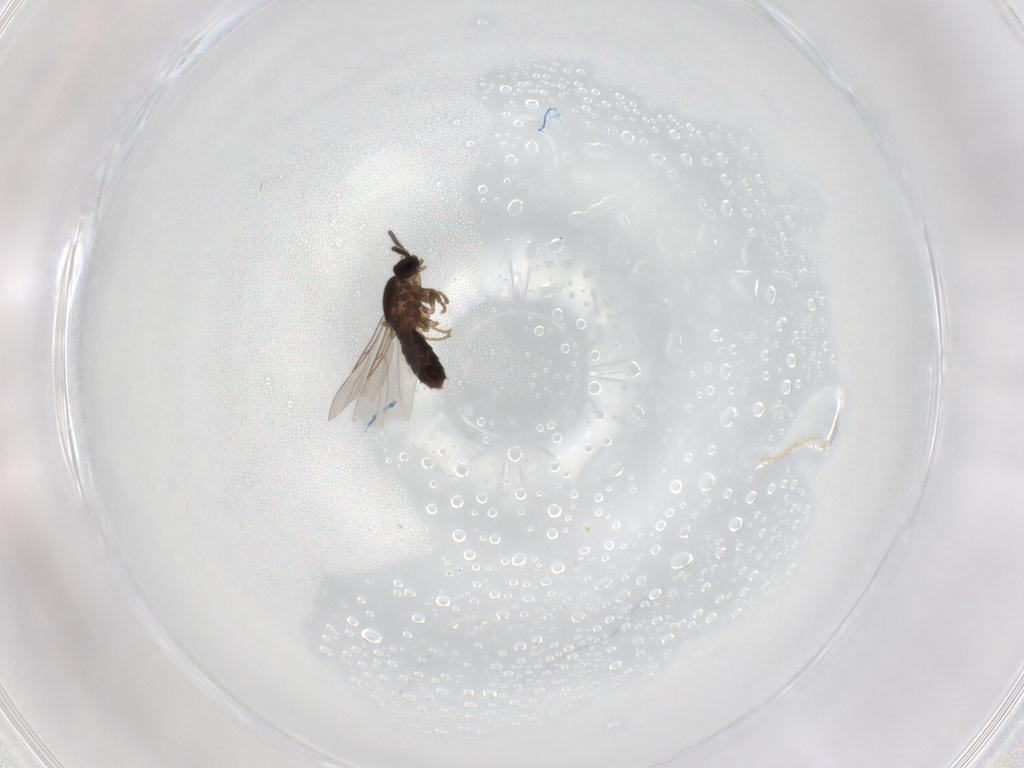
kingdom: Animalia
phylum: Arthropoda
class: Insecta
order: Diptera
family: Scatopsidae
